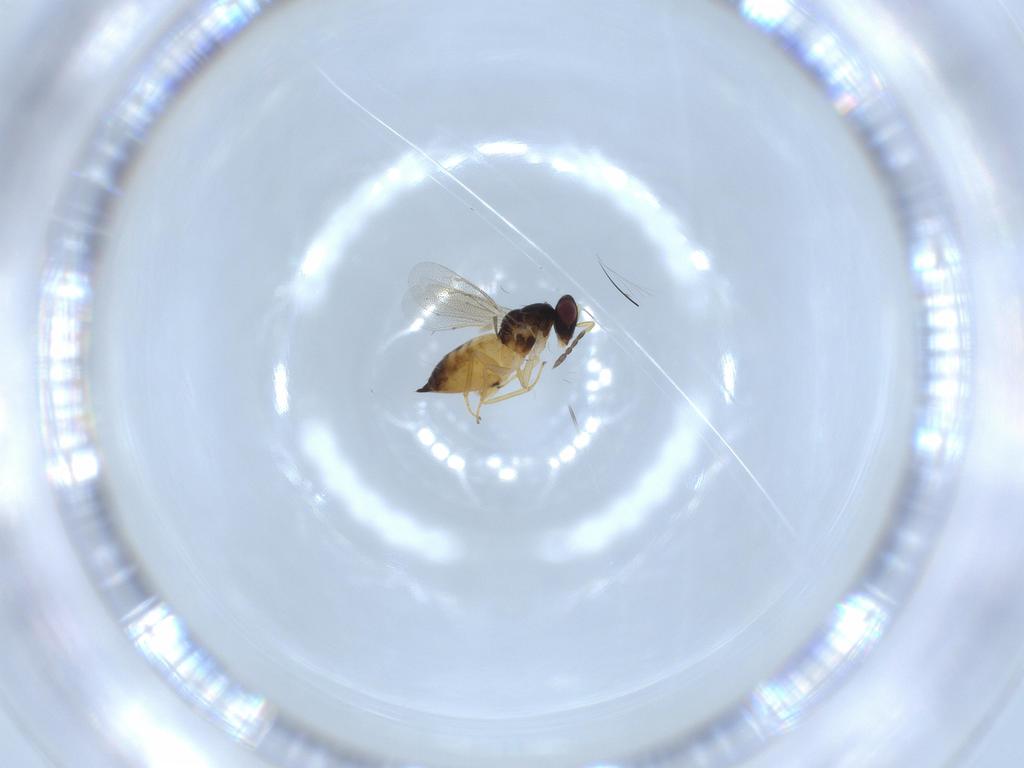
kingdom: Animalia
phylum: Arthropoda
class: Insecta
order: Hymenoptera
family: Eulophidae
